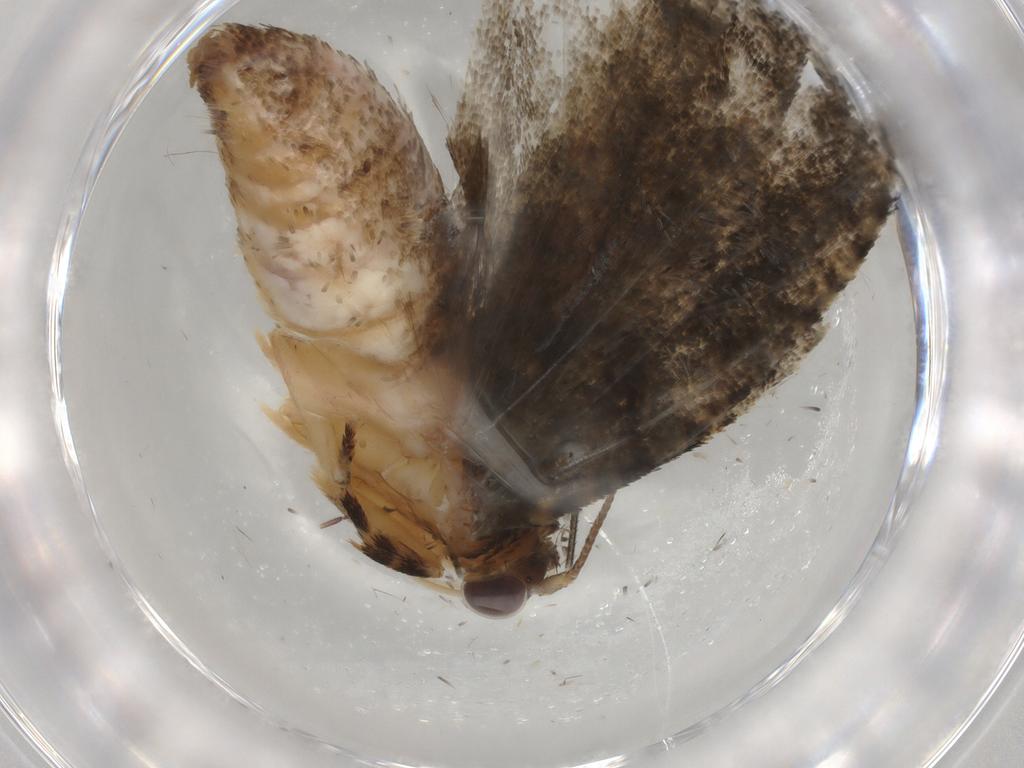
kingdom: Animalia
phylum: Arthropoda
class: Insecta
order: Lepidoptera
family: Tortricidae
